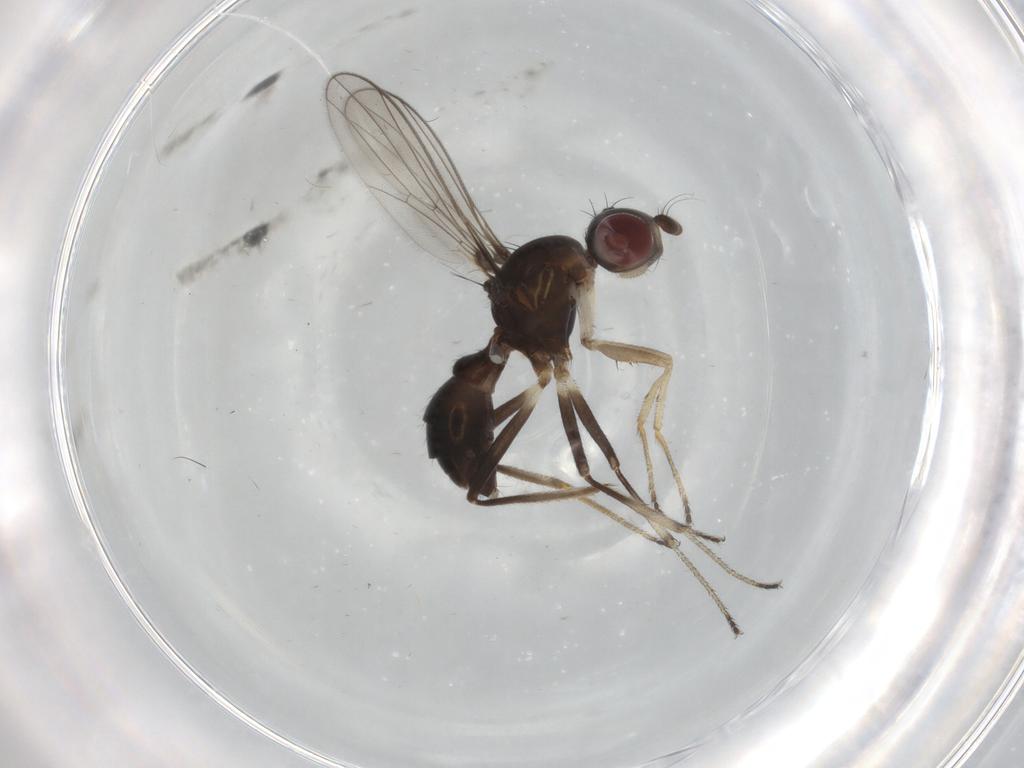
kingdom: Animalia
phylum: Arthropoda
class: Insecta
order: Diptera
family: Sepsidae
